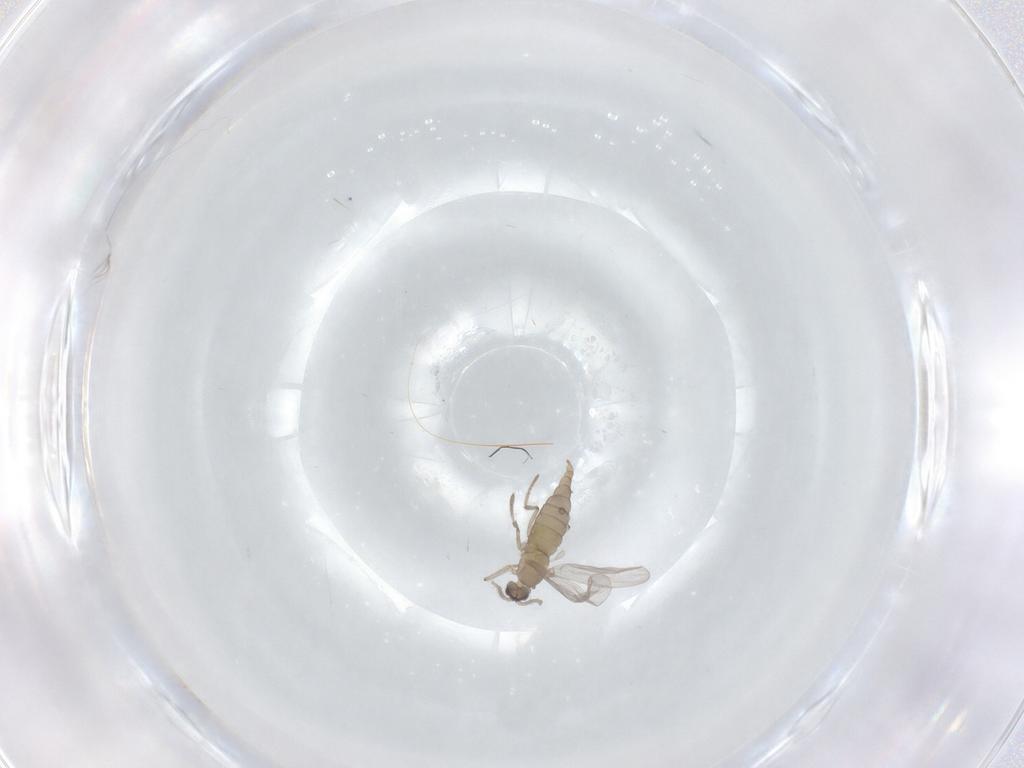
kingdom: Animalia
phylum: Arthropoda
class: Insecta
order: Diptera
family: Cecidomyiidae
